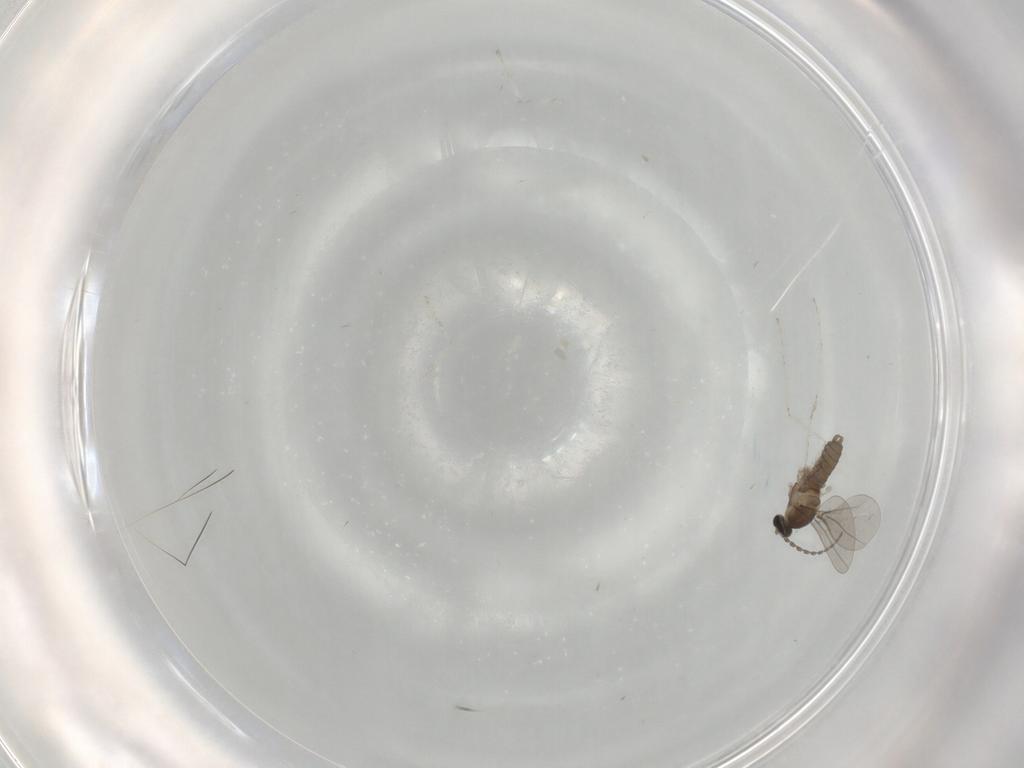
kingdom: Animalia
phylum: Arthropoda
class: Insecta
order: Diptera
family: Cecidomyiidae
